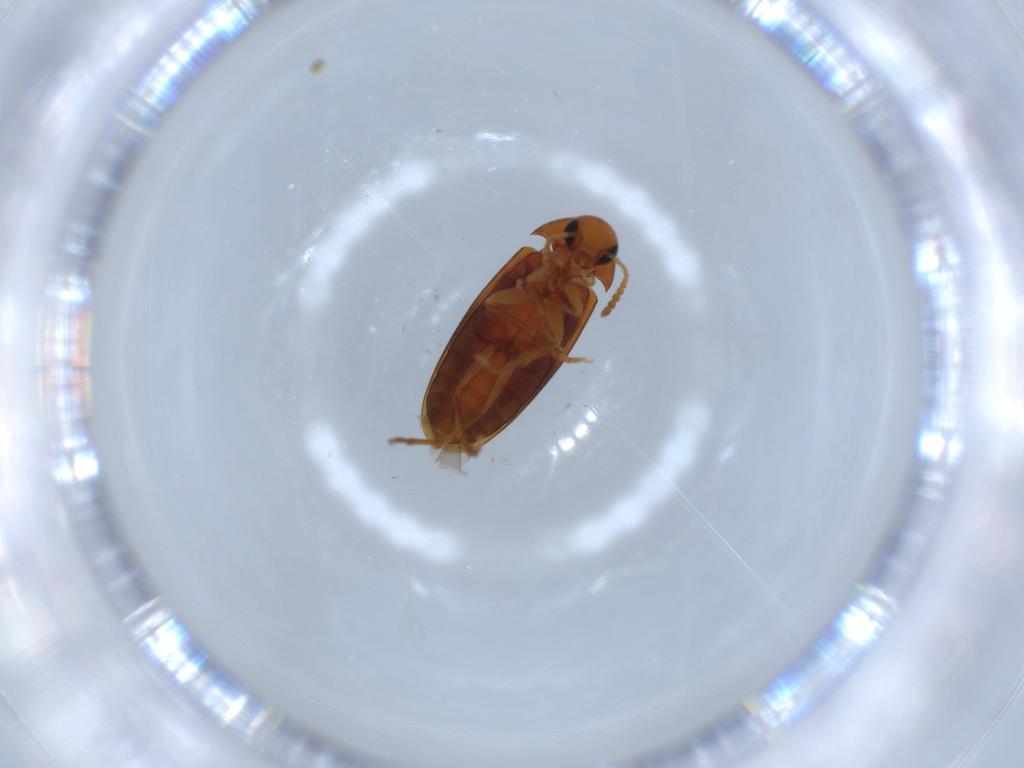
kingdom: Animalia
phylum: Arthropoda
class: Insecta
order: Coleoptera
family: Scraptiidae
